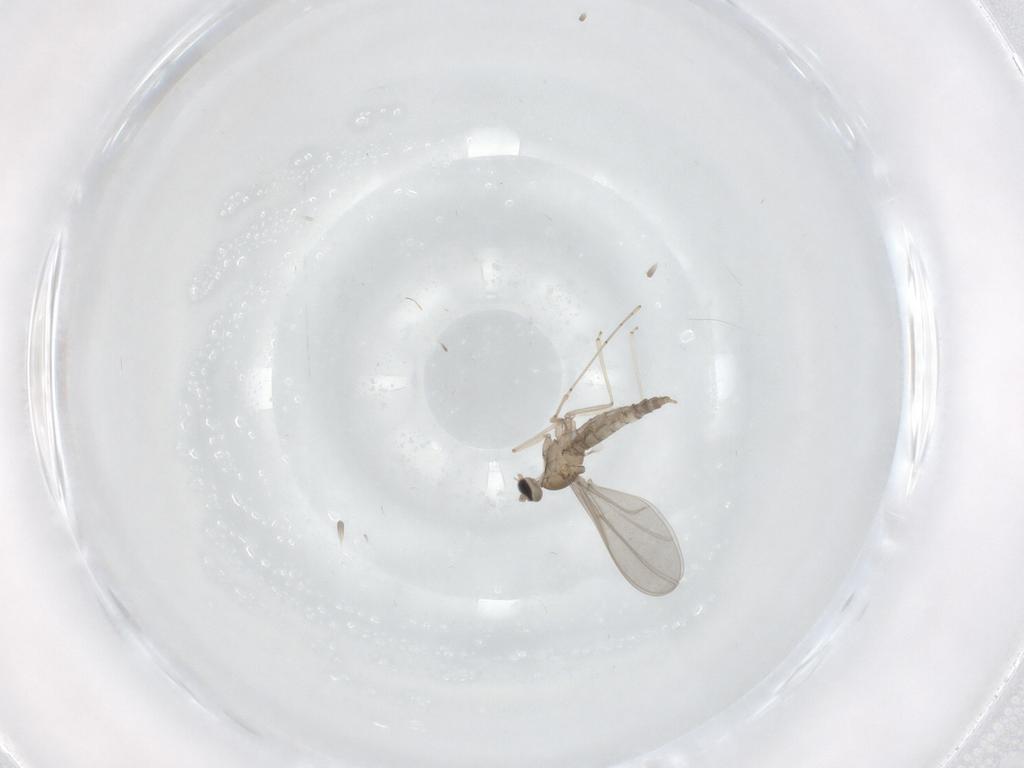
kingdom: Animalia
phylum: Arthropoda
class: Insecta
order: Diptera
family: Cecidomyiidae
